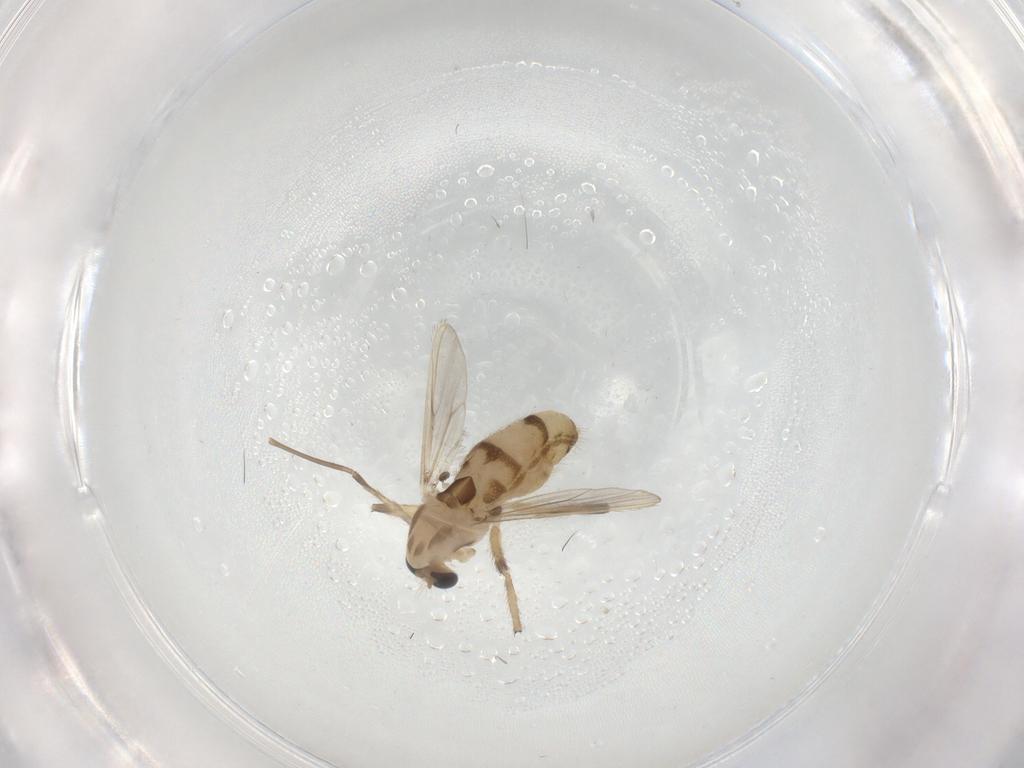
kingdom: Animalia
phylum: Arthropoda
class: Insecta
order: Diptera
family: Chironomidae
